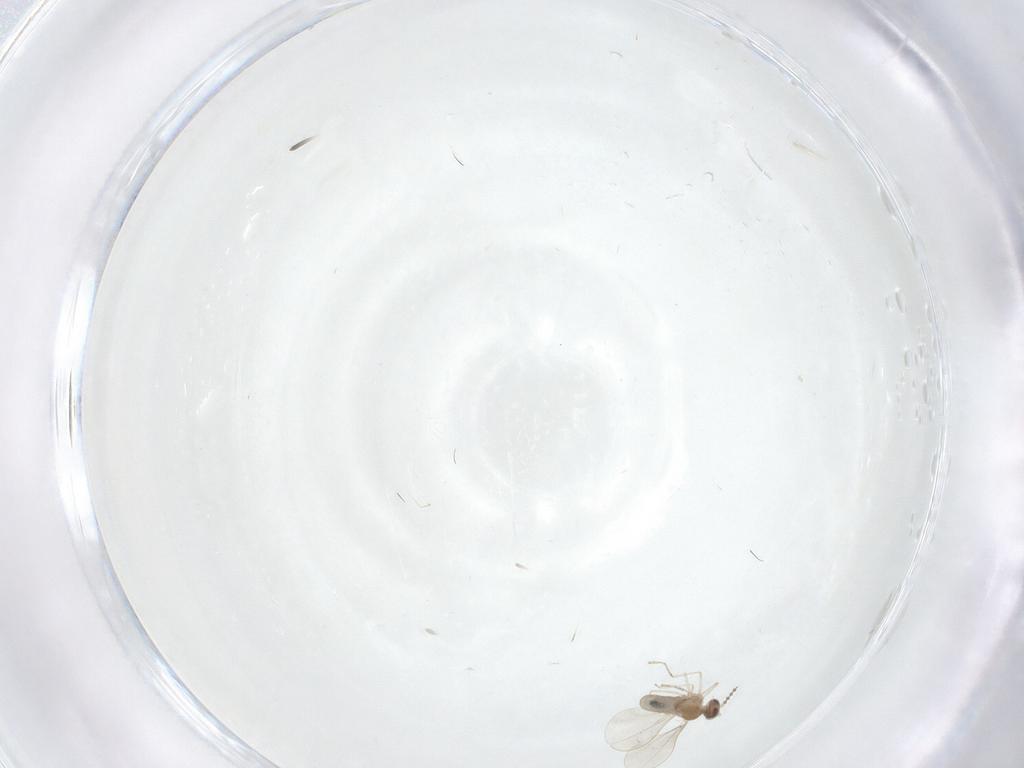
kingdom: Animalia
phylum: Arthropoda
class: Insecta
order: Diptera
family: Cecidomyiidae
